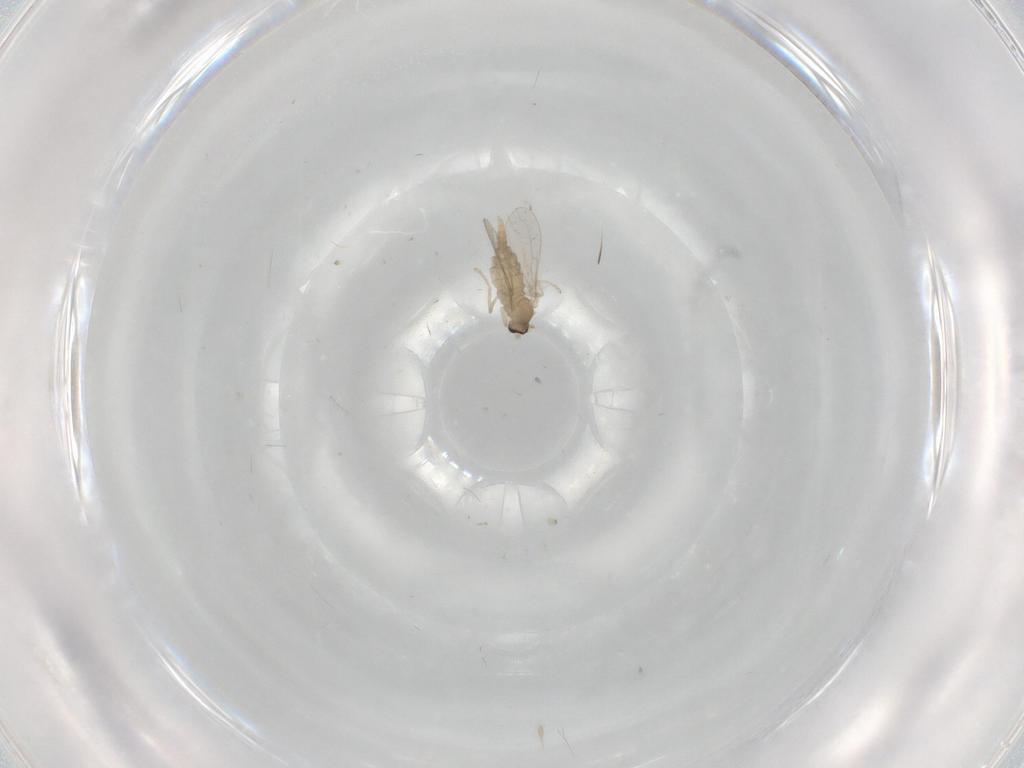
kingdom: Animalia
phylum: Arthropoda
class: Insecta
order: Diptera
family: Cecidomyiidae
